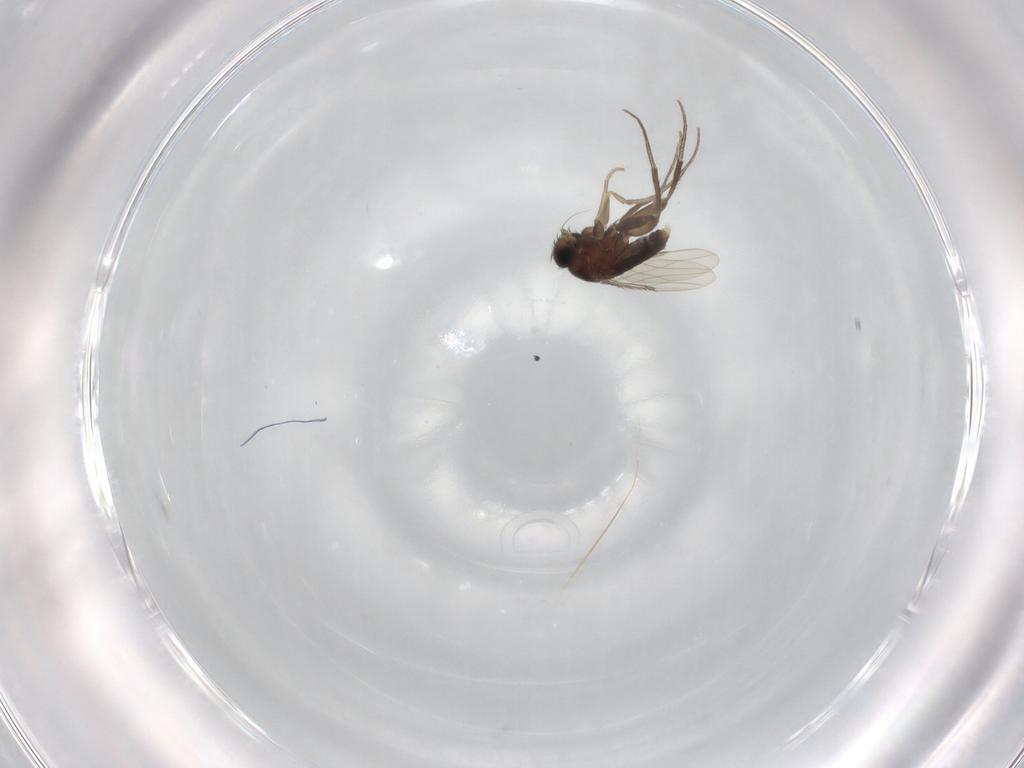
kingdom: Animalia
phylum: Arthropoda
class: Insecta
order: Diptera
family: Phoridae
